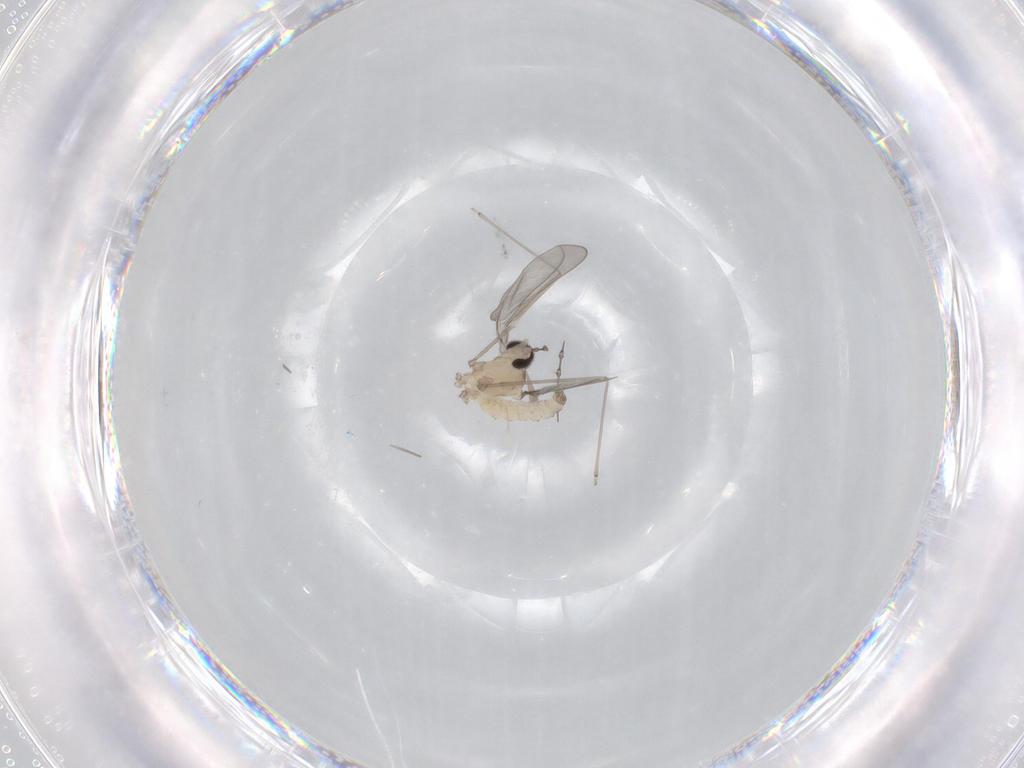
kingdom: Animalia
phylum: Arthropoda
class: Insecta
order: Diptera
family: Cecidomyiidae
